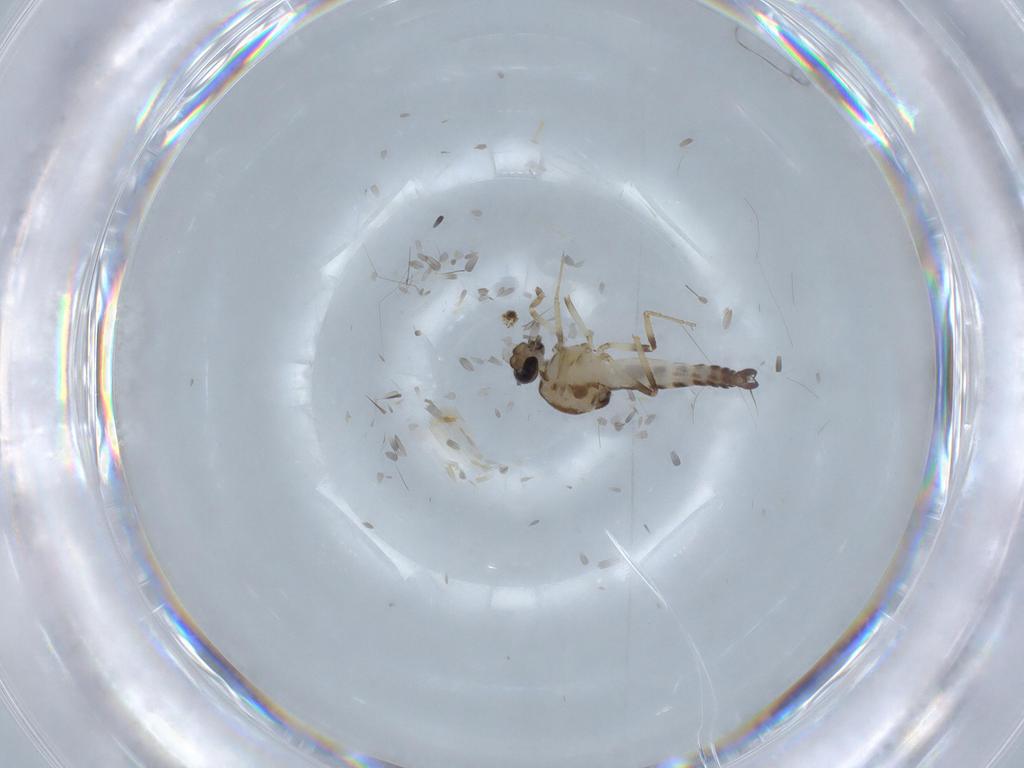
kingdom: Animalia
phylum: Arthropoda
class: Insecta
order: Diptera
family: Ceratopogonidae
